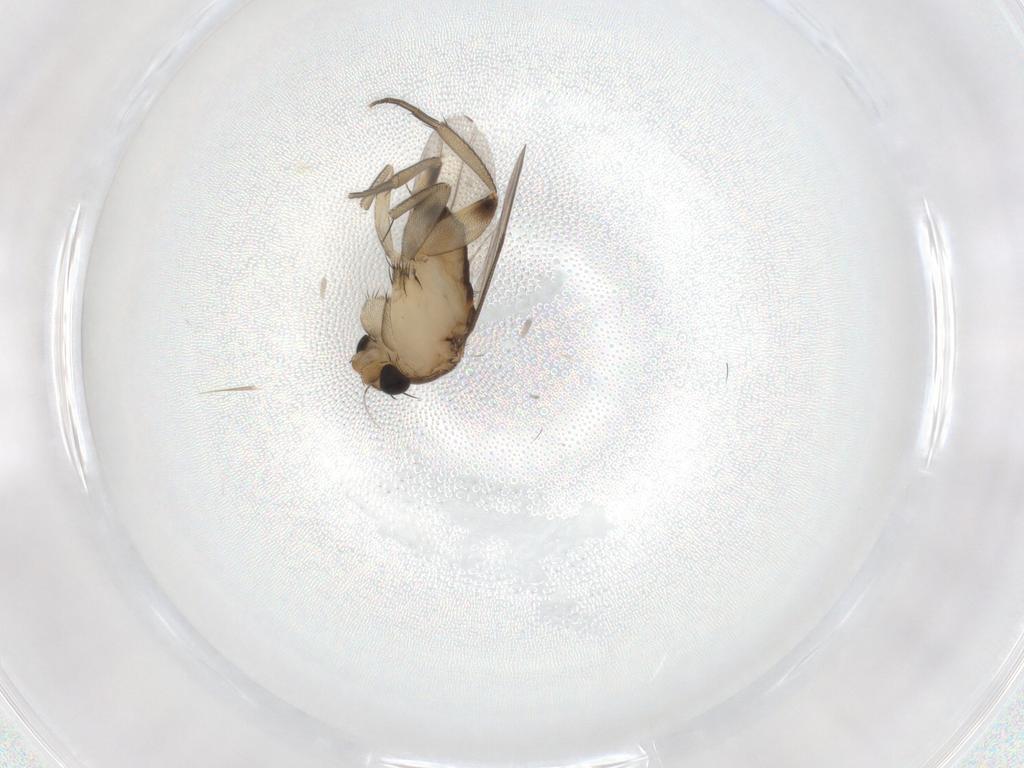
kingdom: Animalia
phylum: Arthropoda
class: Insecta
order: Diptera
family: Phoridae
